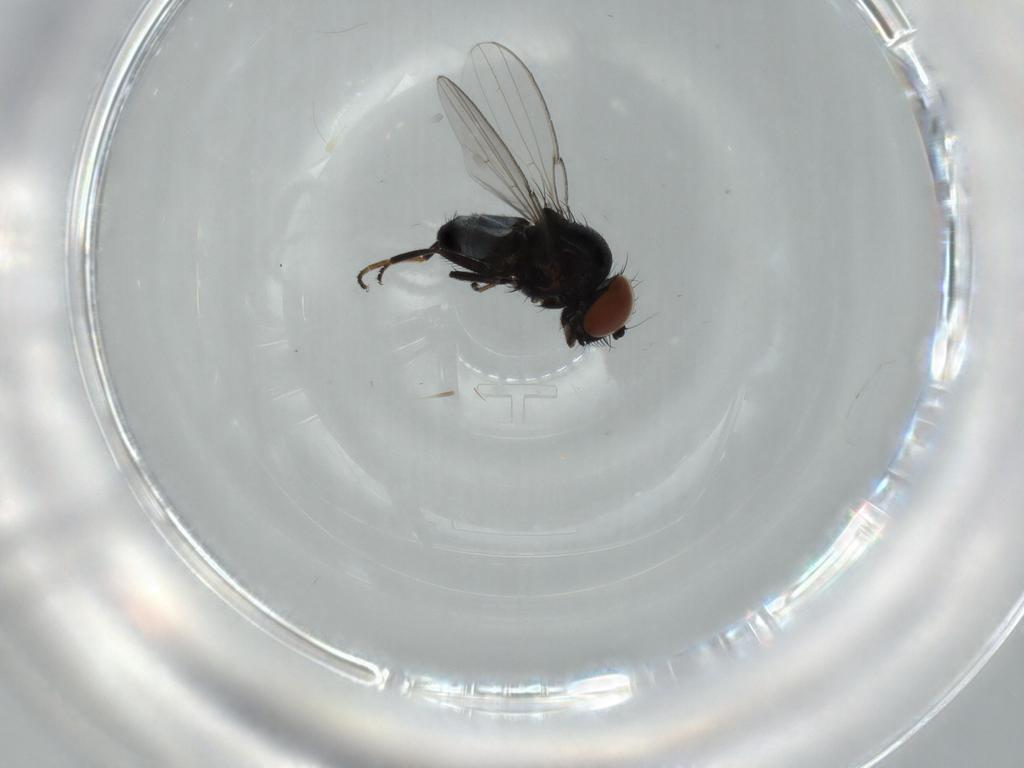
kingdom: Animalia
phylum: Arthropoda
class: Insecta
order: Diptera
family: Milichiidae
